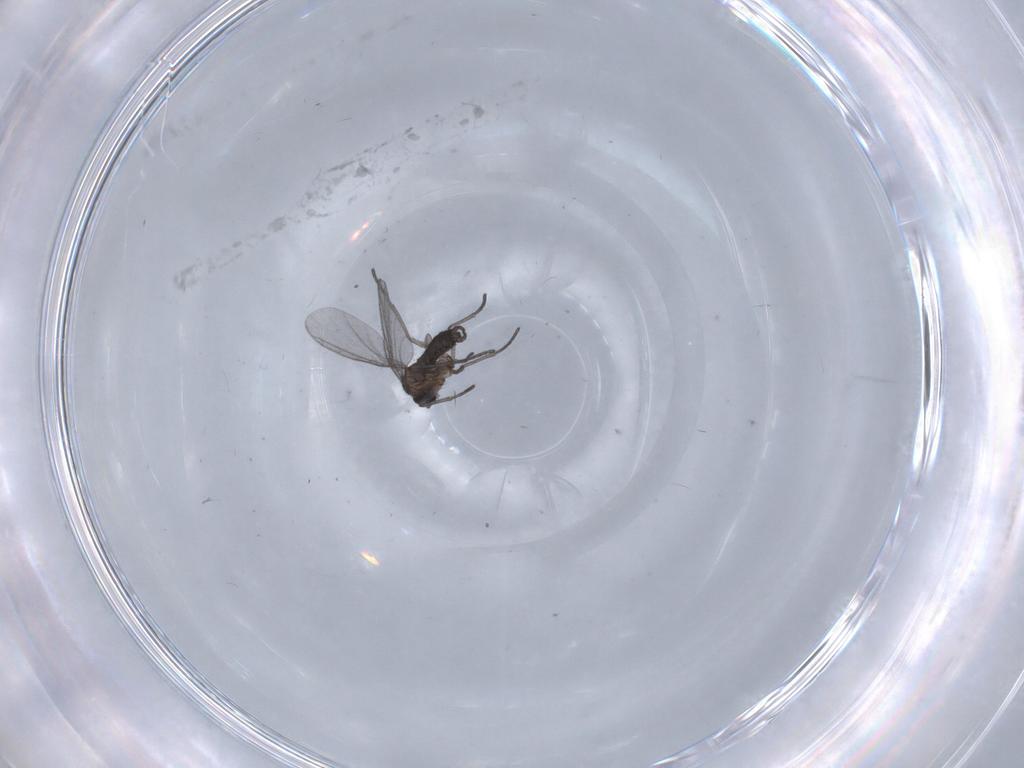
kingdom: Animalia
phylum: Arthropoda
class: Insecta
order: Diptera
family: Cecidomyiidae
